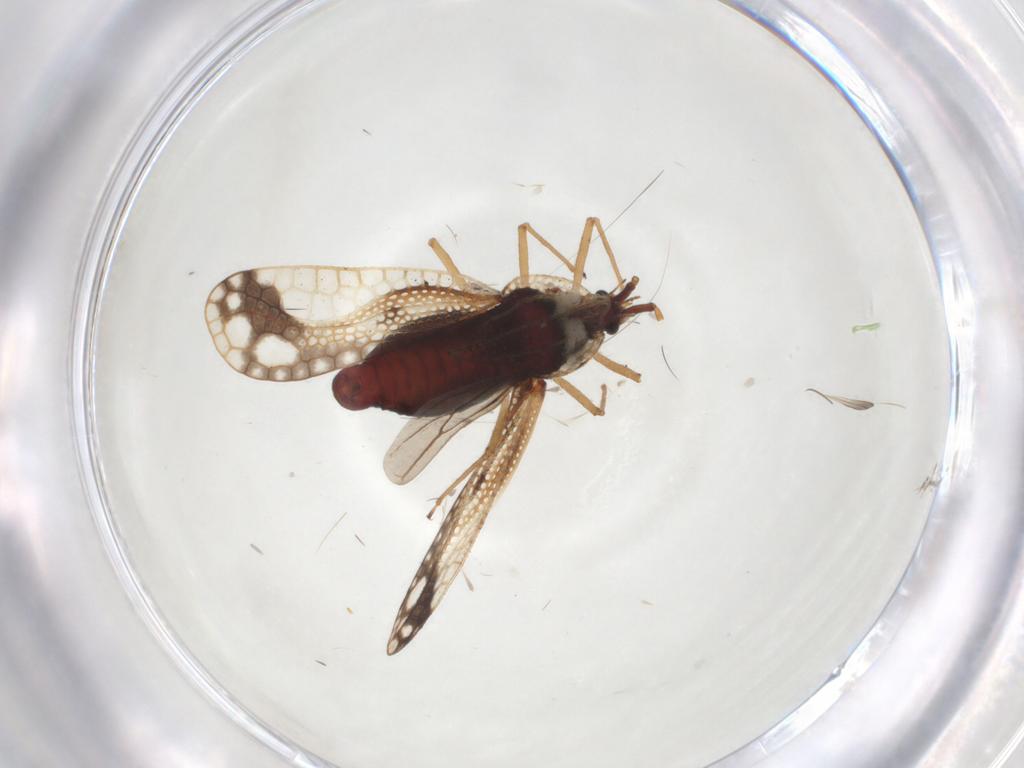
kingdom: Animalia
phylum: Arthropoda
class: Insecta
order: Hemiptera
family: Tingidae
